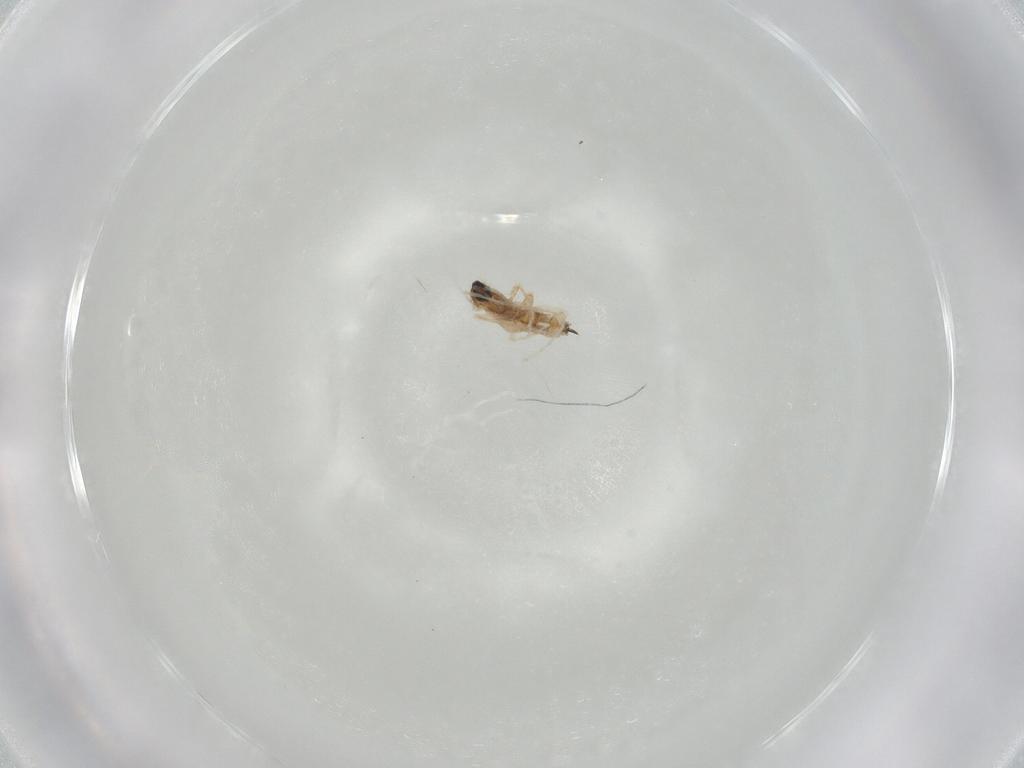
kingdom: Animalia
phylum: Arthropoda
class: Insecta
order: Diptera
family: Cecidomyiidae
